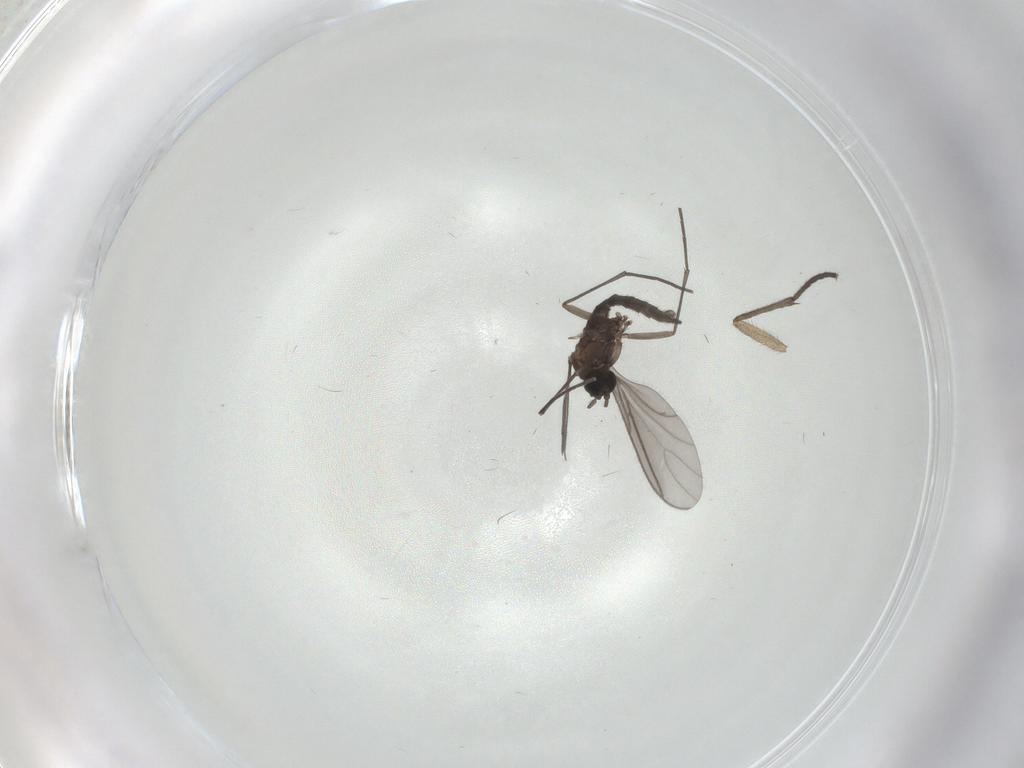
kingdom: Animalia
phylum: Arthropoda
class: Insecta
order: Diptera
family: Sciaridae
